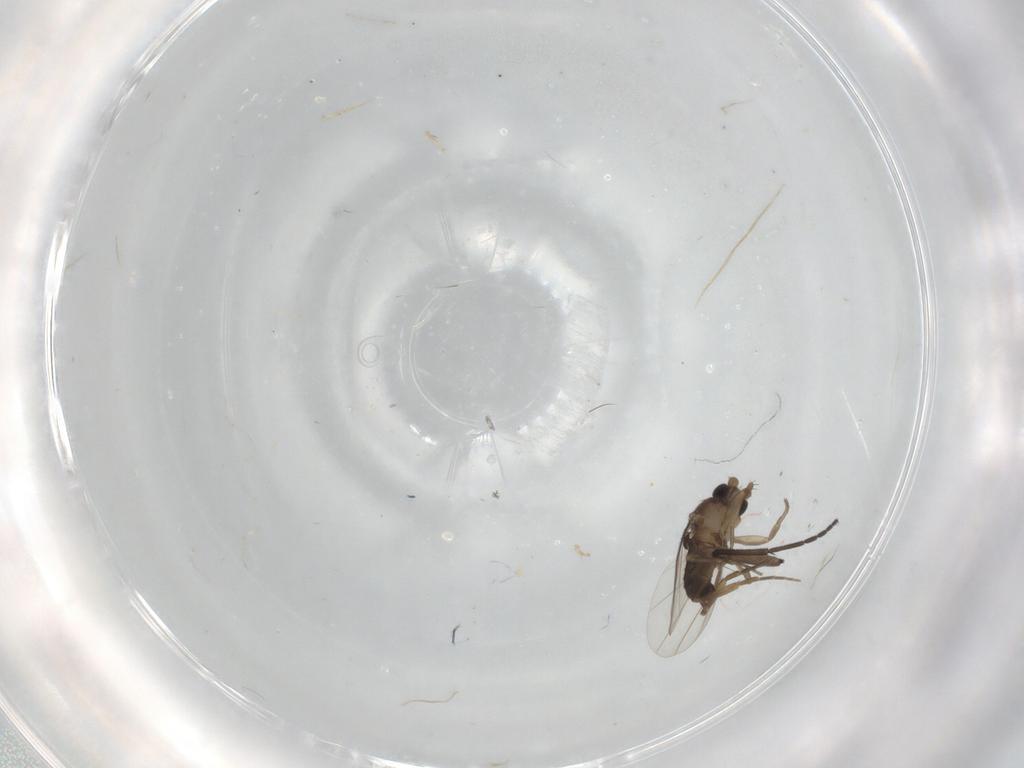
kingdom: Animalia
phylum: Arthropoda
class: Insecta
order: Diptera
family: Phoridae
